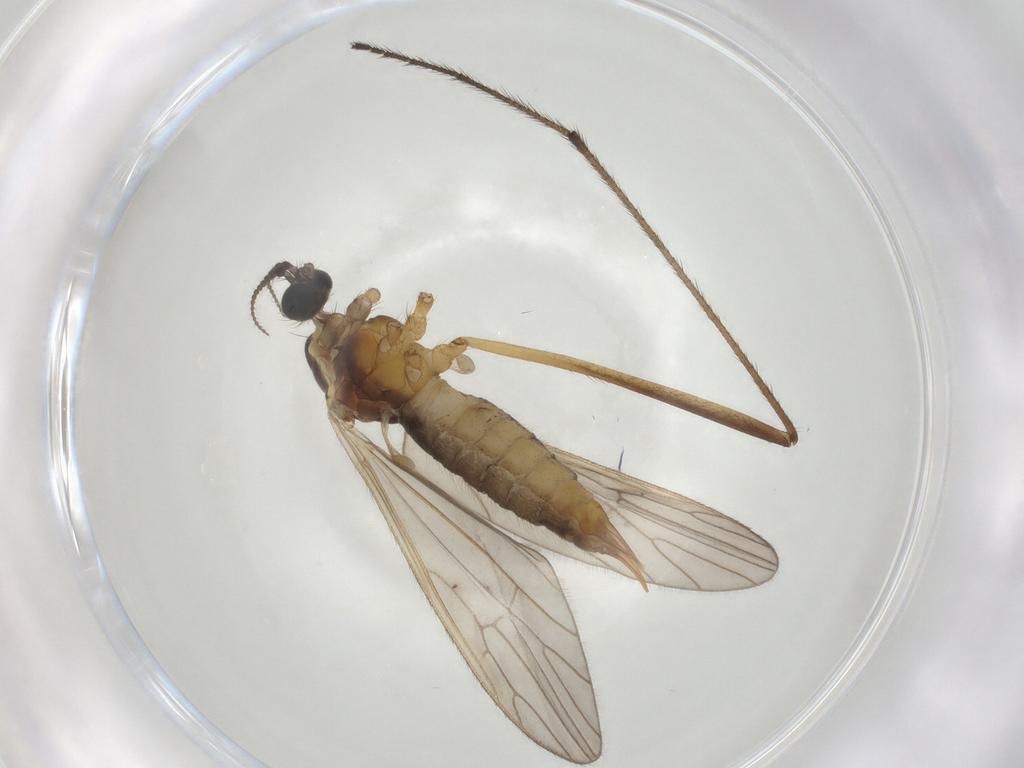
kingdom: Animalia
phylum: Arthropoda
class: Insecta
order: Diptera
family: Agromyzidae
